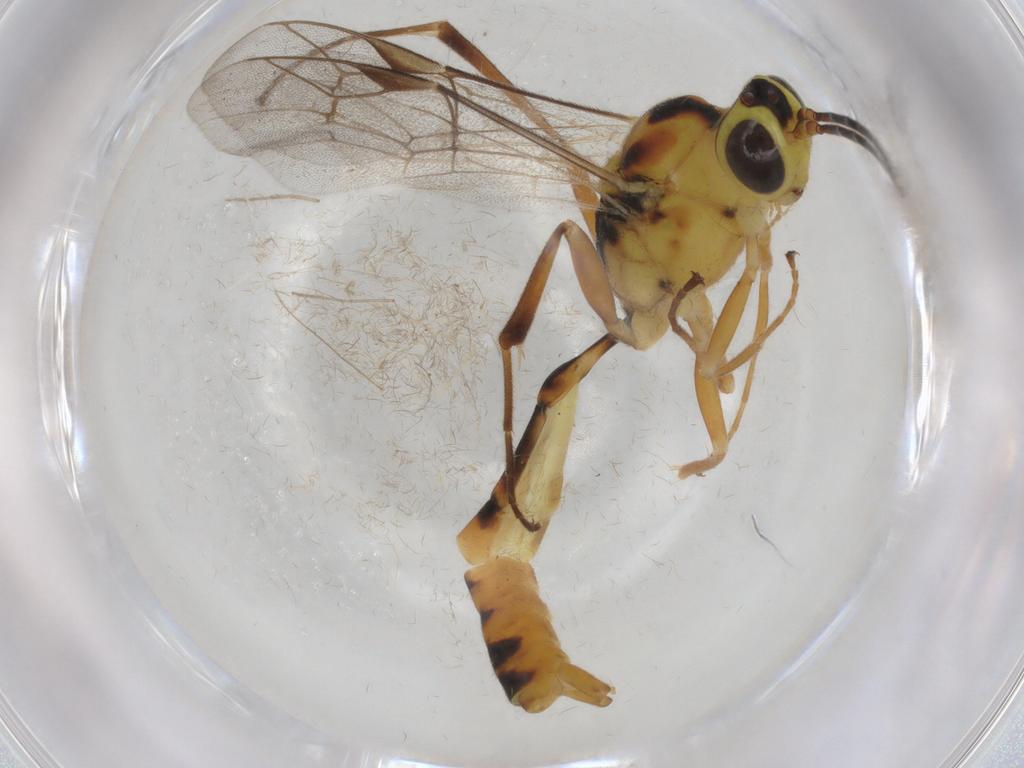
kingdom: Animalia
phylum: Arthropoda
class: Insecta
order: Hymenoptera
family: Ichneumonidae
